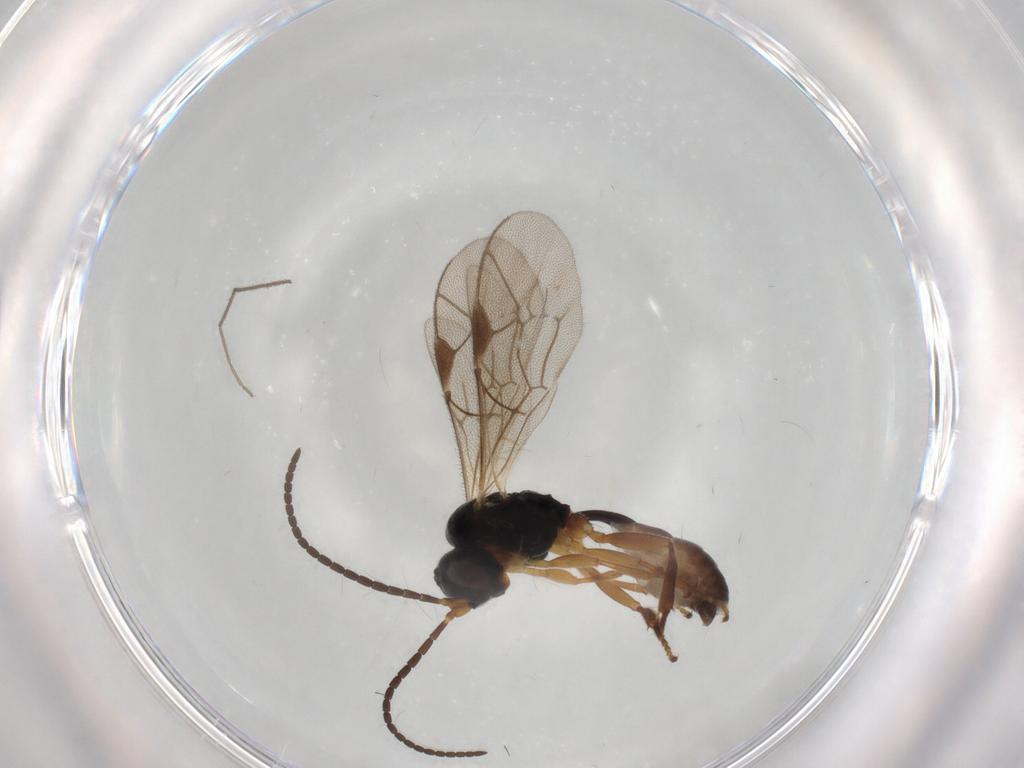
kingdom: Animalia
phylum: Arthropoda
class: Insecta
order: Hymenoptera
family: Ichneumonidae
